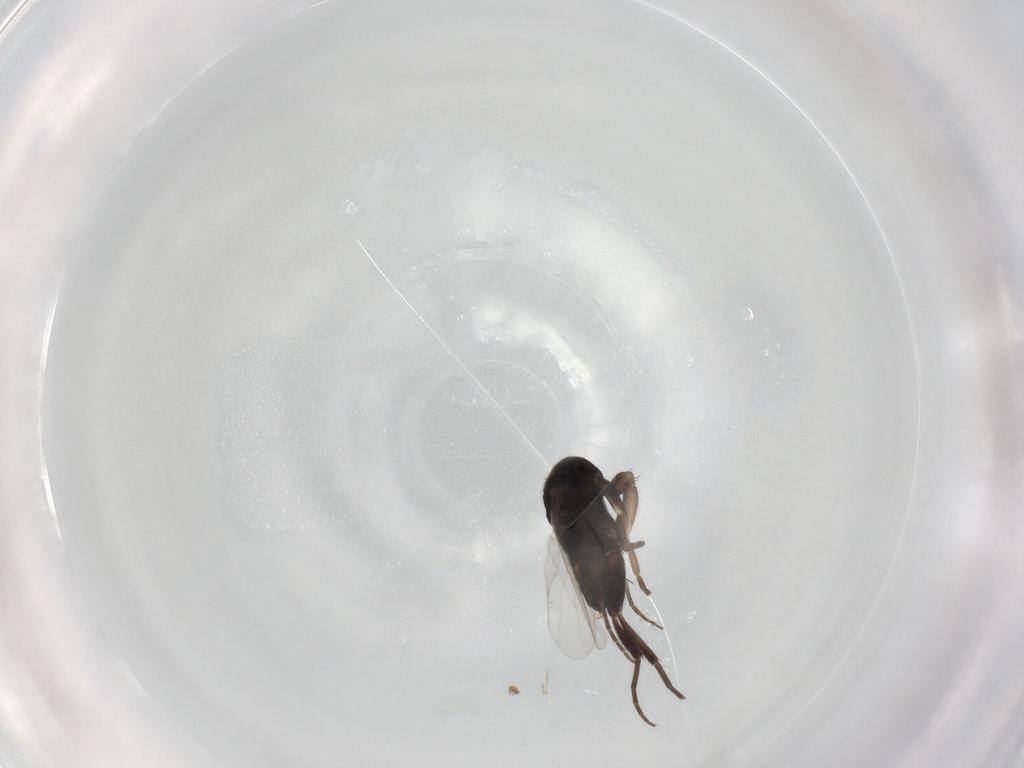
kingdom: Animalia
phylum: Arthropoda
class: Insecta
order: Diptera
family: Phoridae
